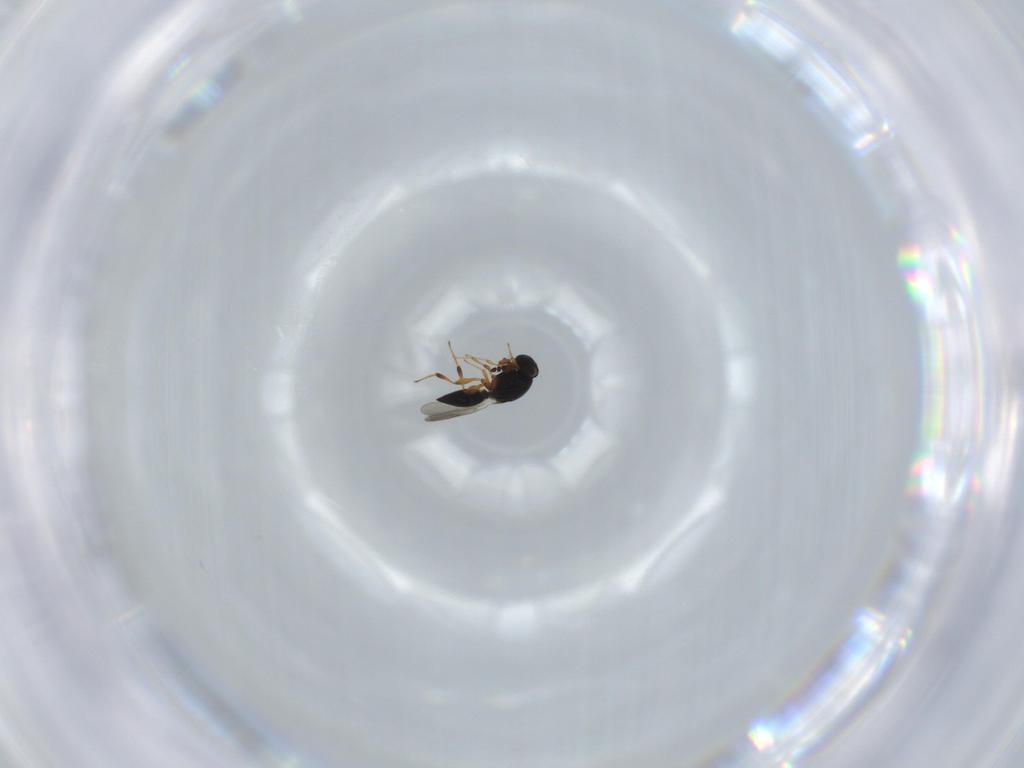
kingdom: Animalia
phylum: Arthropoda
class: Insecta
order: Hymenoptera
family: Platygastridae
